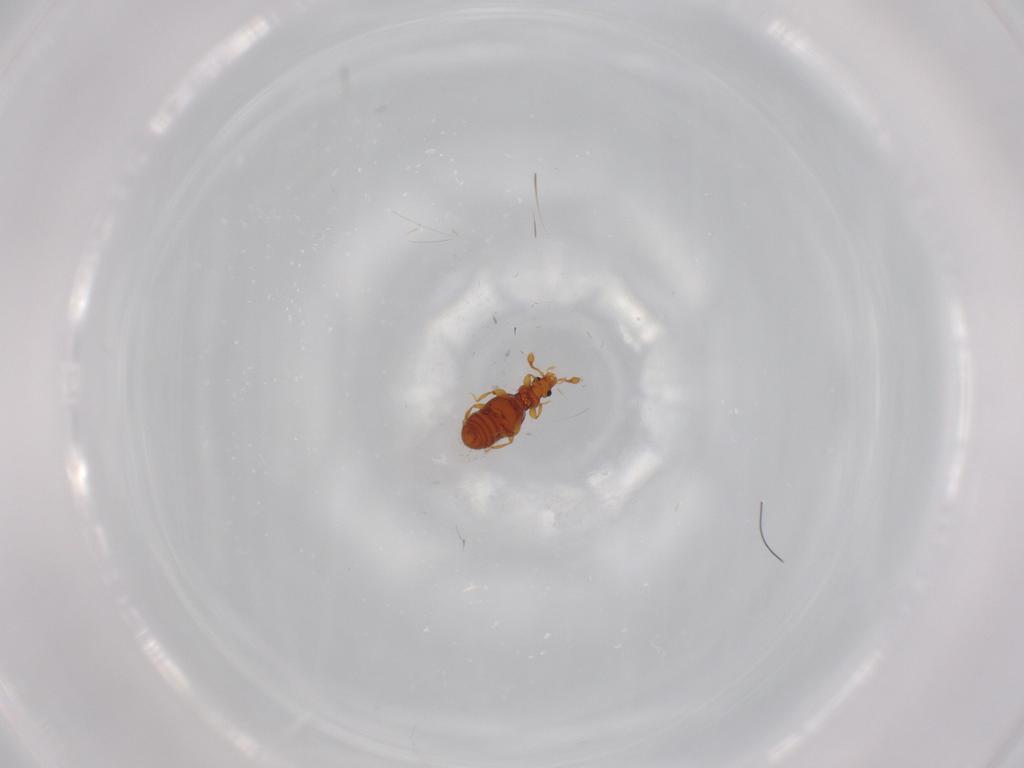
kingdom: Animalia
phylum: Arthropoda
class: Insecta
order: Coleoptera
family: Staphylinidae
